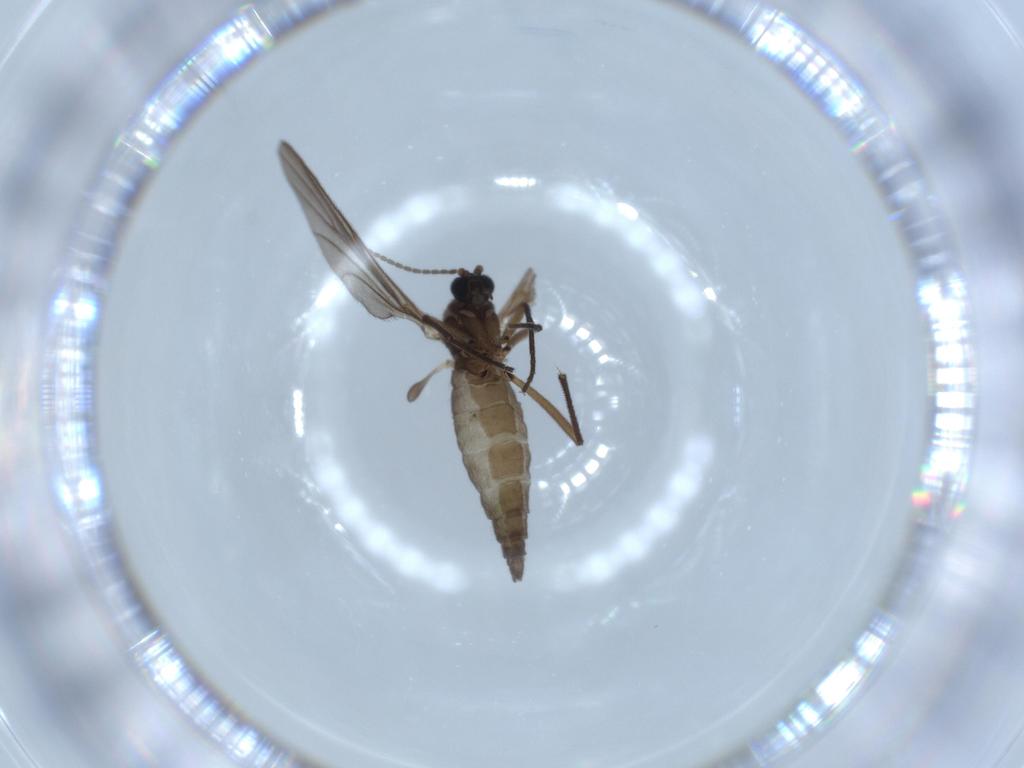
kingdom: Animalia
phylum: Arthropoda
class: Insecta
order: Diptera
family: Sciaridae
